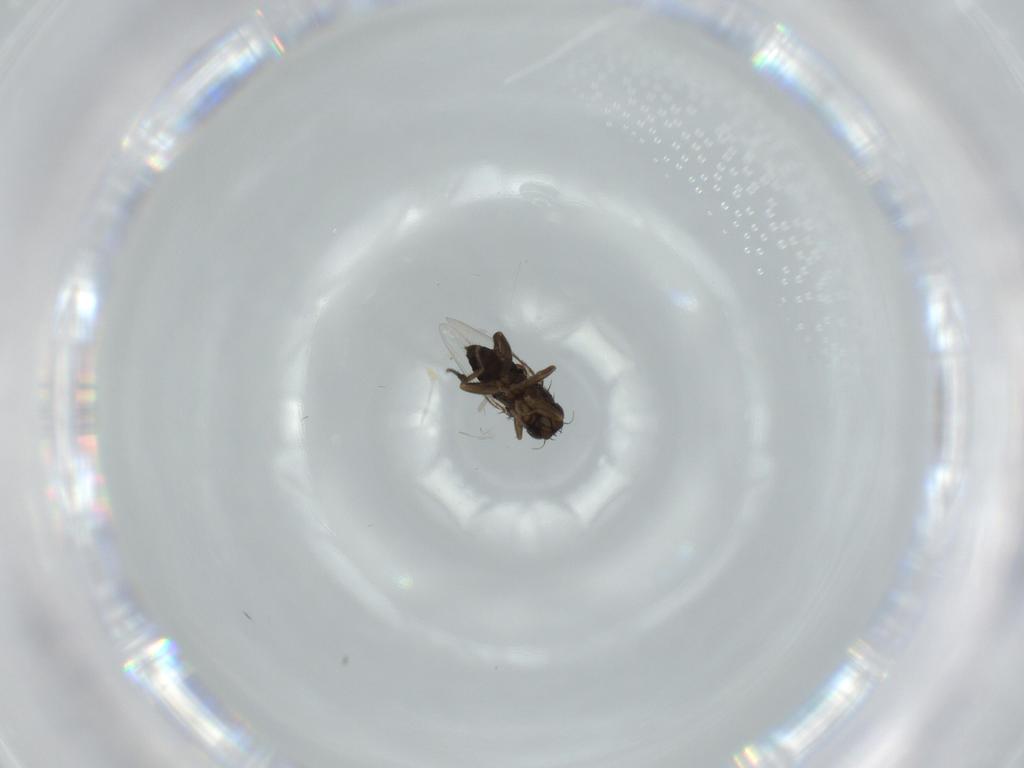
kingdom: Animalia
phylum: Arthropoda
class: Insecta
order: Diptera
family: Phoridae
